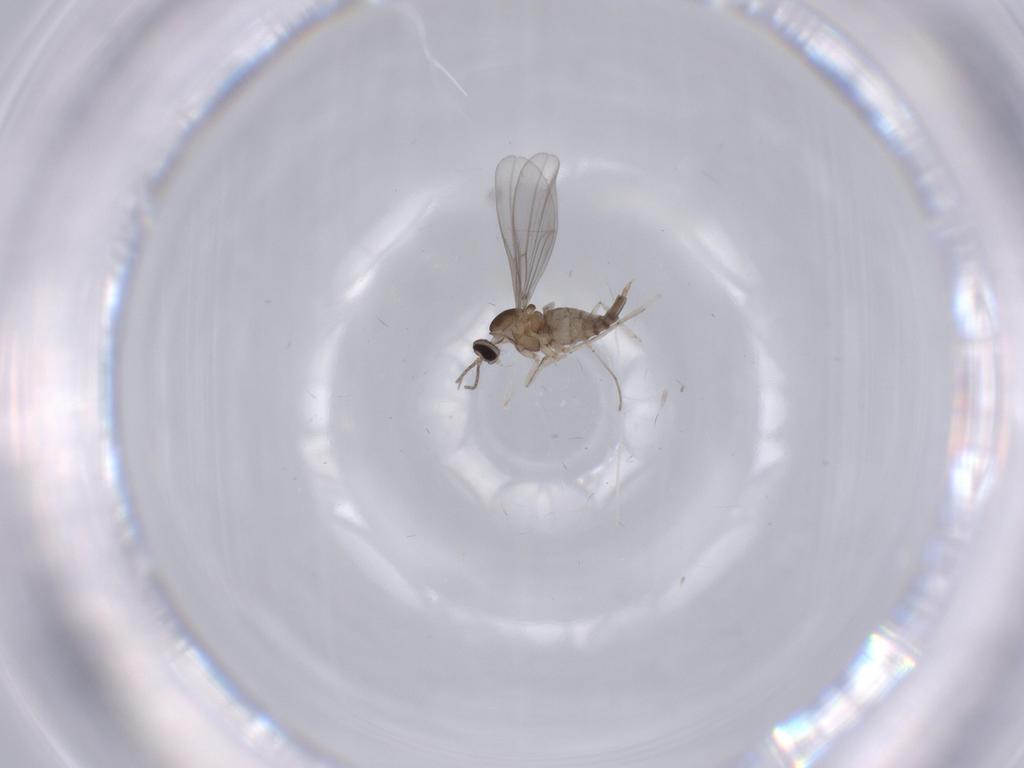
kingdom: Animalia
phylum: Arthropoda
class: Insecta
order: Diptera
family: Cecidomyiidae
